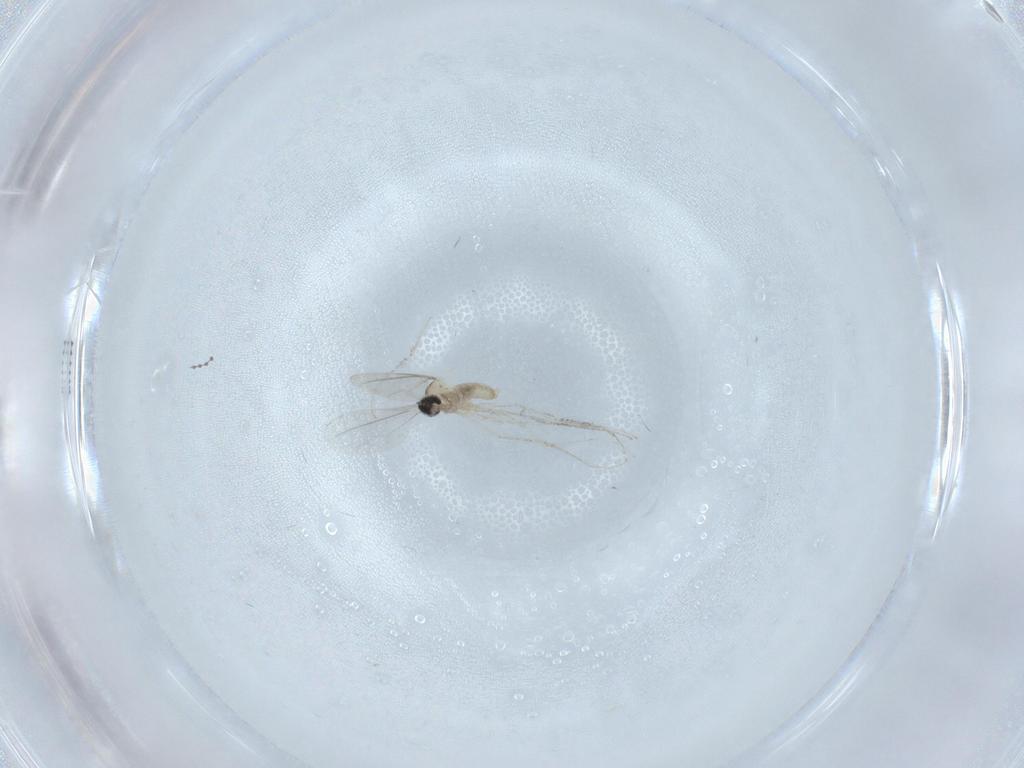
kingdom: Animalia
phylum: Arthropoda
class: Insecta
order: Diptera
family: Cecidomyiidae
